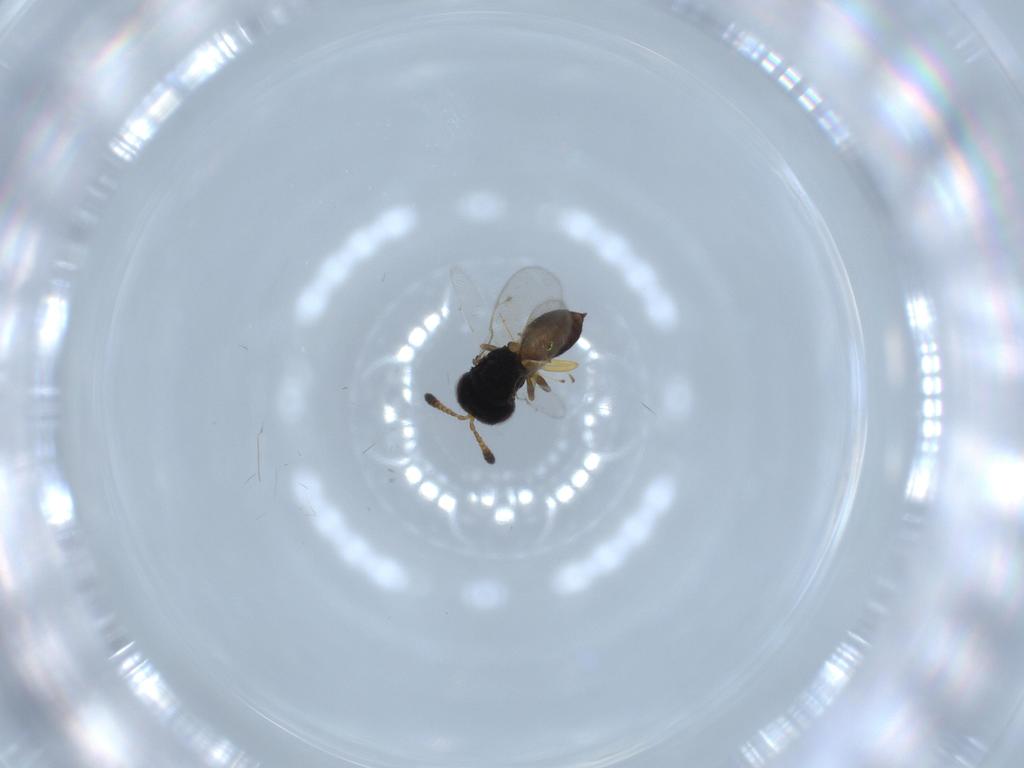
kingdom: Animalia
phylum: Arthropoda
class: Insecta
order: Hymenoptera
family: Pteromalidae
